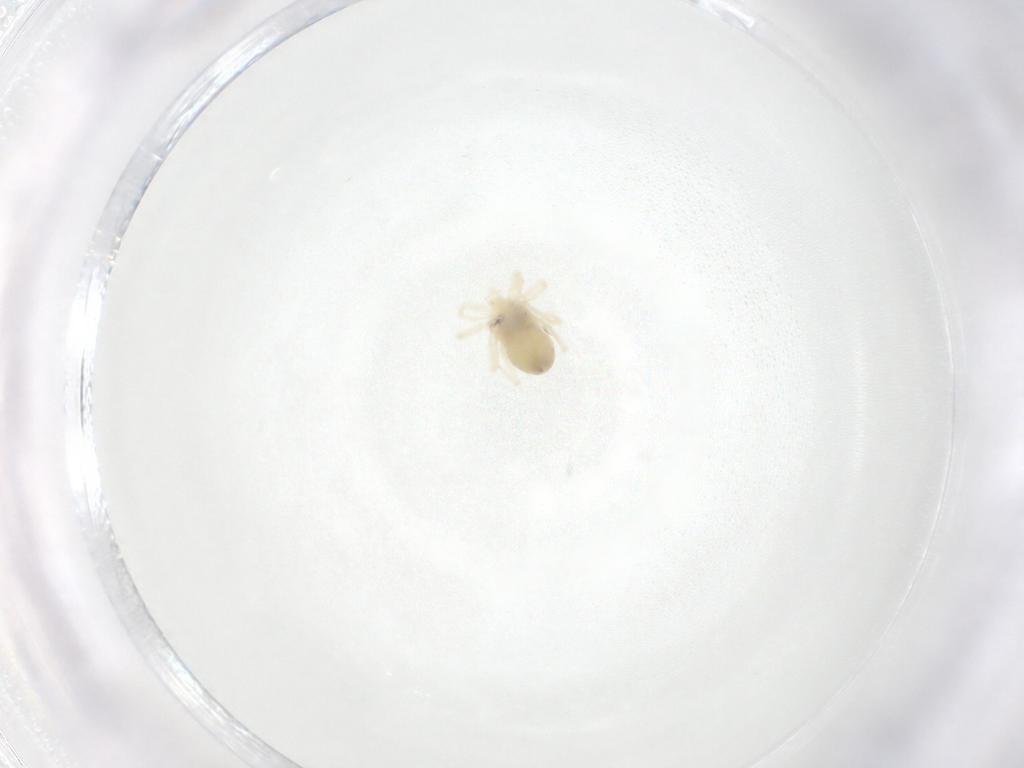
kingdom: Animalia
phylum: Arthropoda
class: Arachnida
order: Trombidiformes
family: Anystidae
